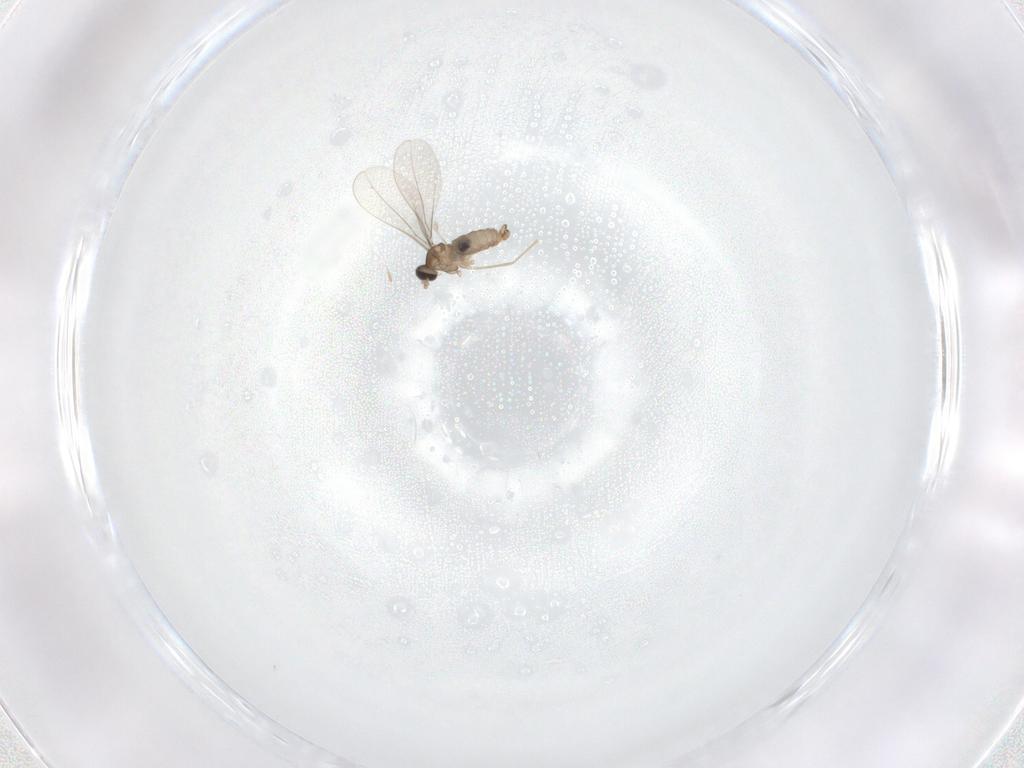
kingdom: Animalia
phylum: Arthropoda
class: Insecta
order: Diptera
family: Cecidomyiidae
